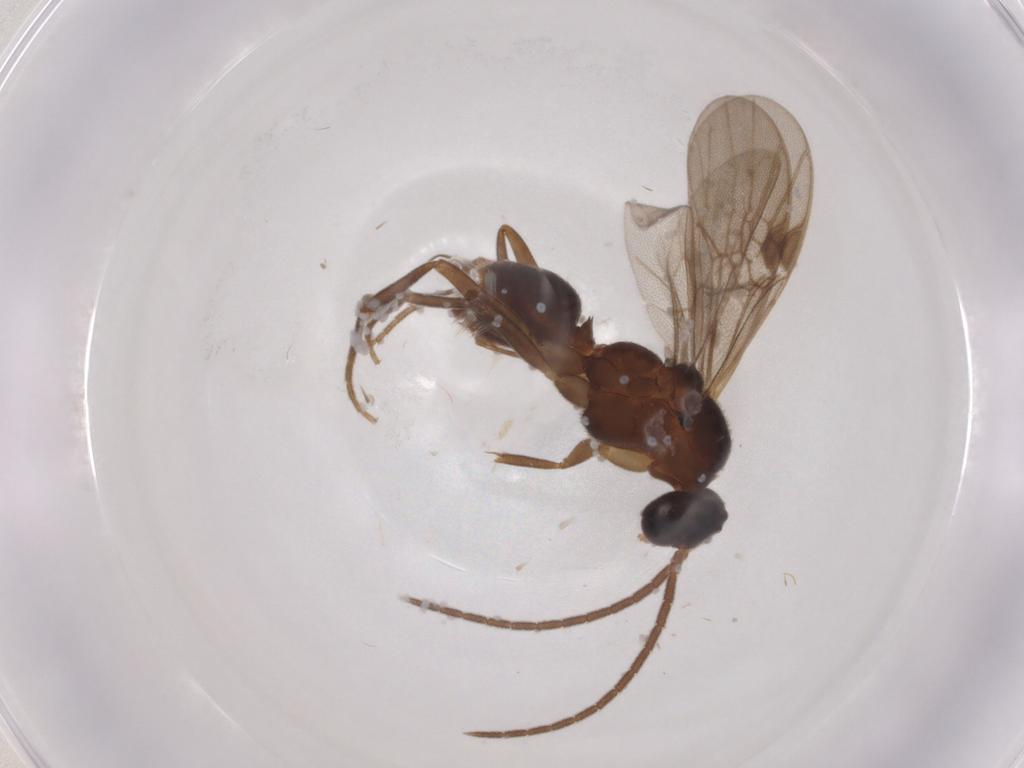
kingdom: Animalia
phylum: Arthropoda
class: Insecta
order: Hymenoptera
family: Formicidae
